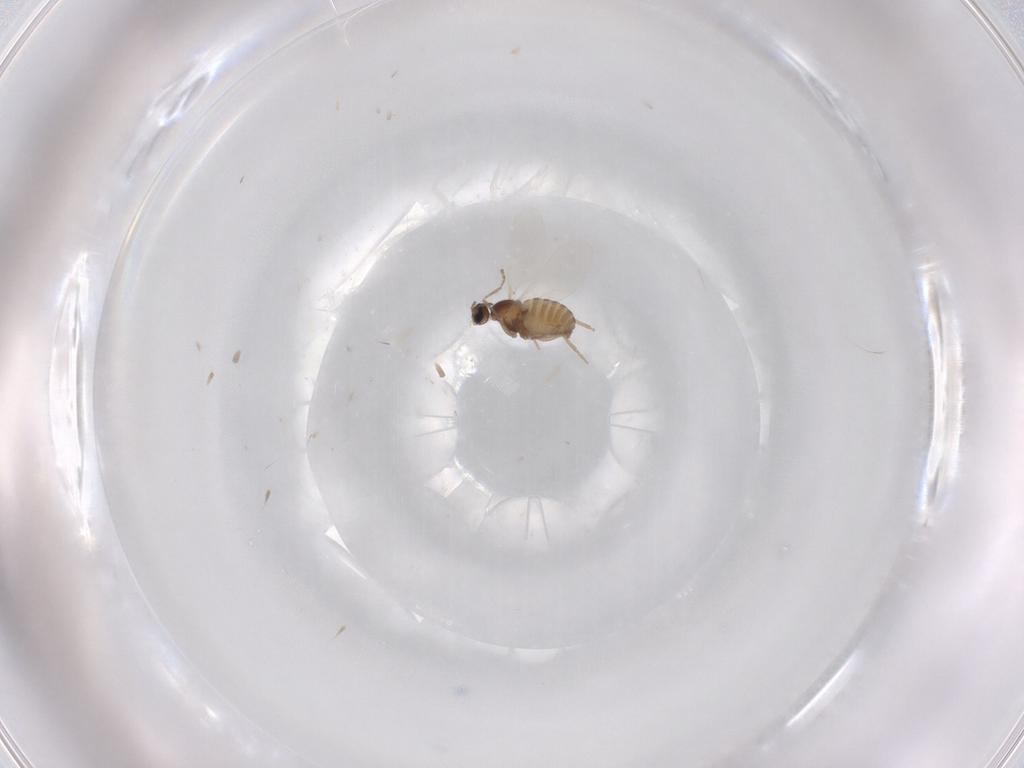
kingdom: Animalia
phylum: Arthropoda
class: Insecta
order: Diptera
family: Cecidomyiidae
